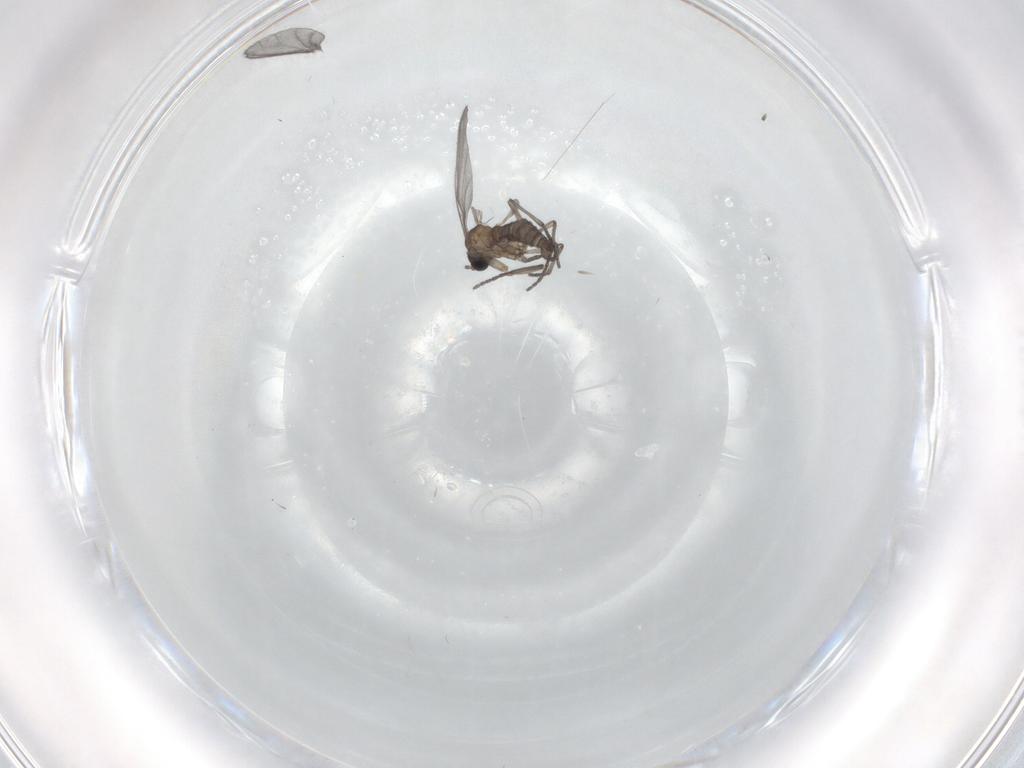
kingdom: Animalia
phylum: Arthropoda
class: Insecta
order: Diptera
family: Sciaridae
